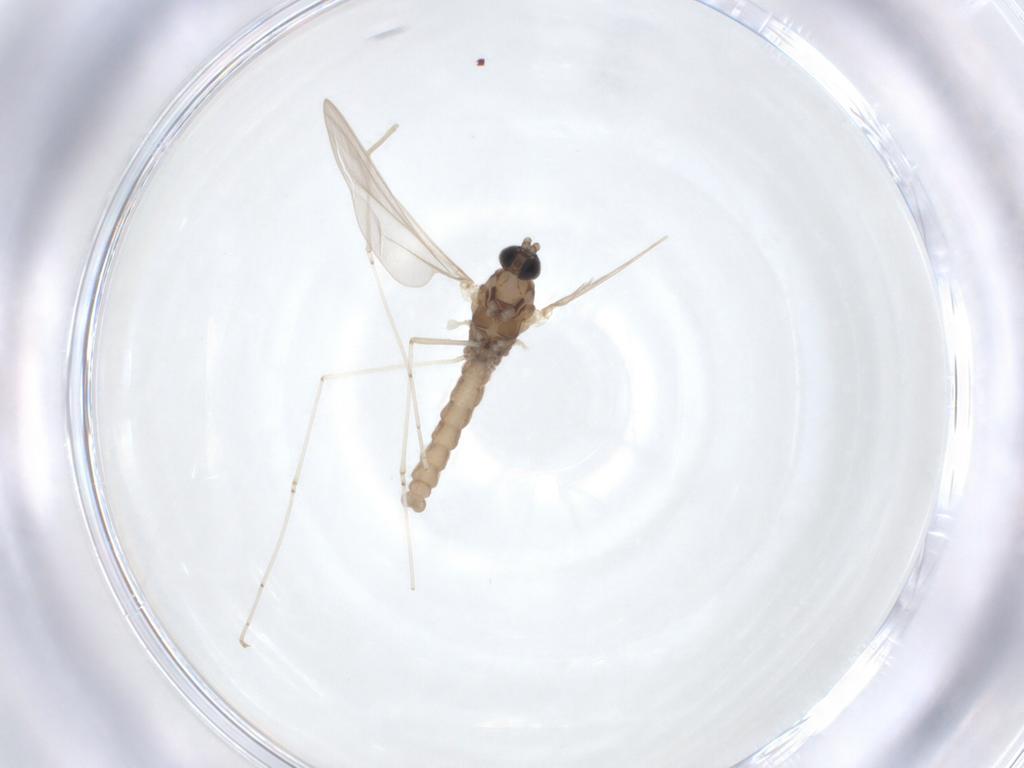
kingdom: Animalia
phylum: Arthropoda
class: Insecta
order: Diptera
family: Cecidomyiidae
